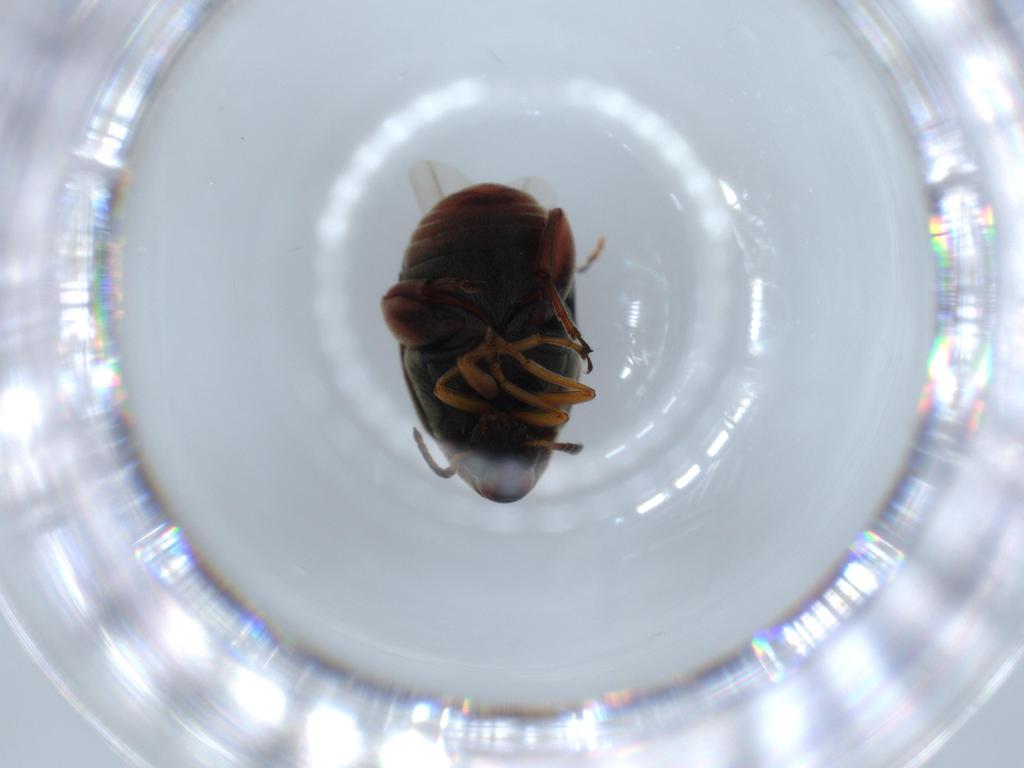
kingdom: Animalia
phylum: Arthropoda
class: Insecta
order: Coleoptera
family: Chrysomelidae
